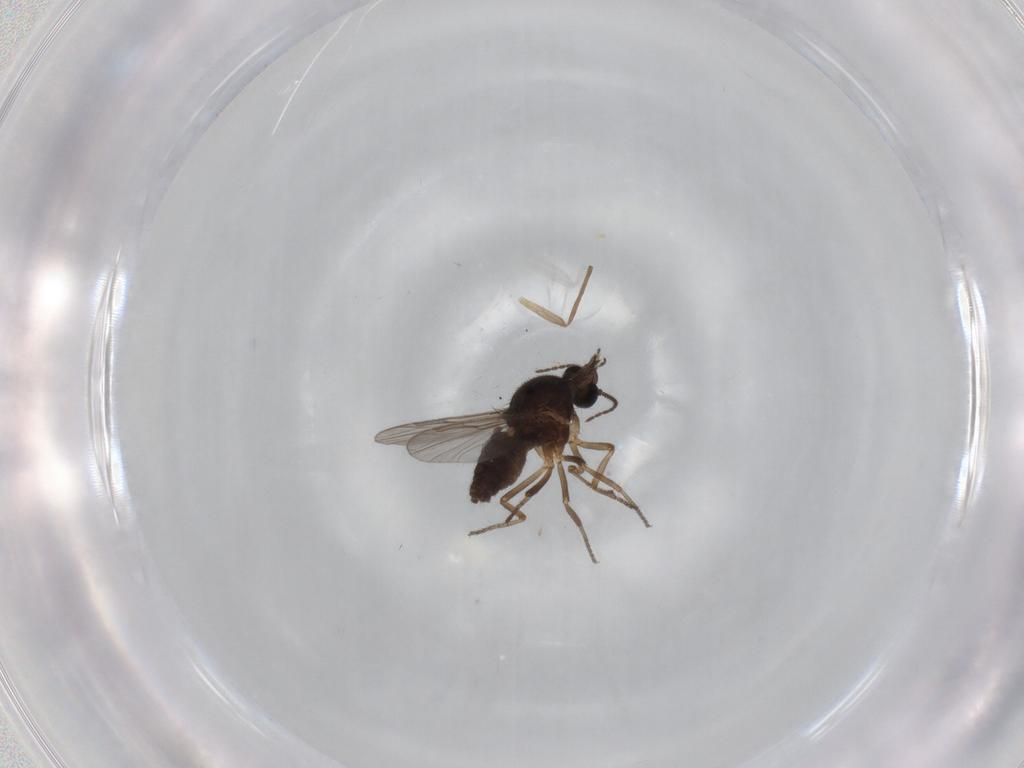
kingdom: Animalia
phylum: Arthropoda
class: Insecta
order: Diptera
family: Ceratopogonidae
